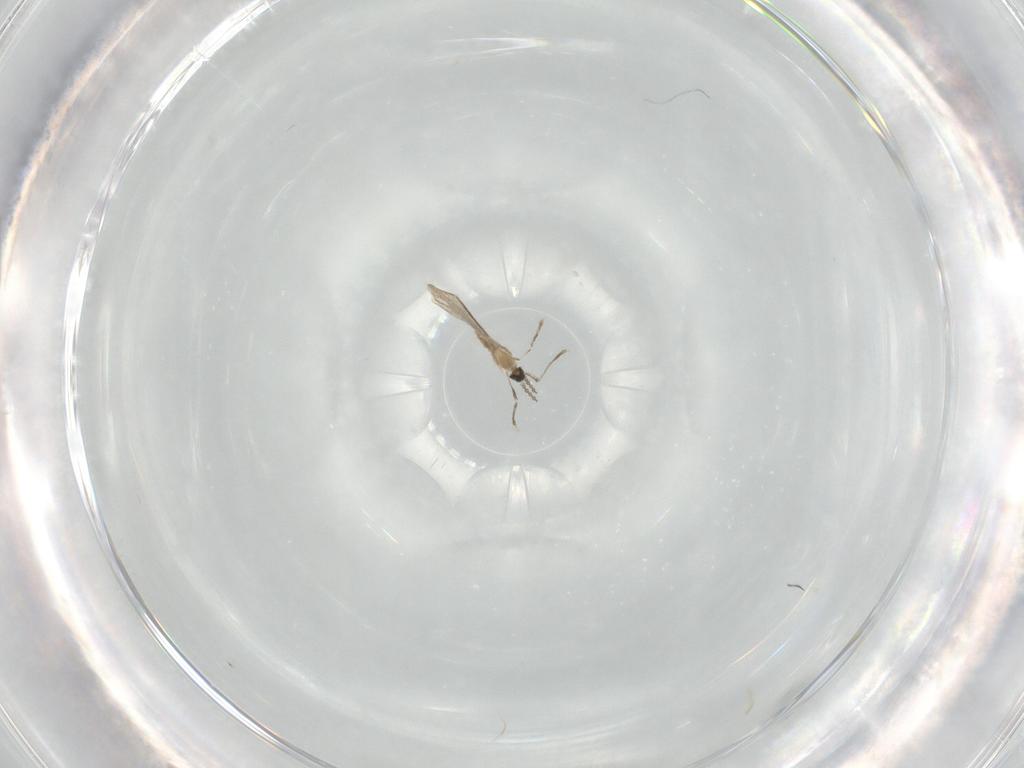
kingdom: Animalia
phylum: Arthropoda
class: Insecta
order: Diptera
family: Cecidomyiidae
